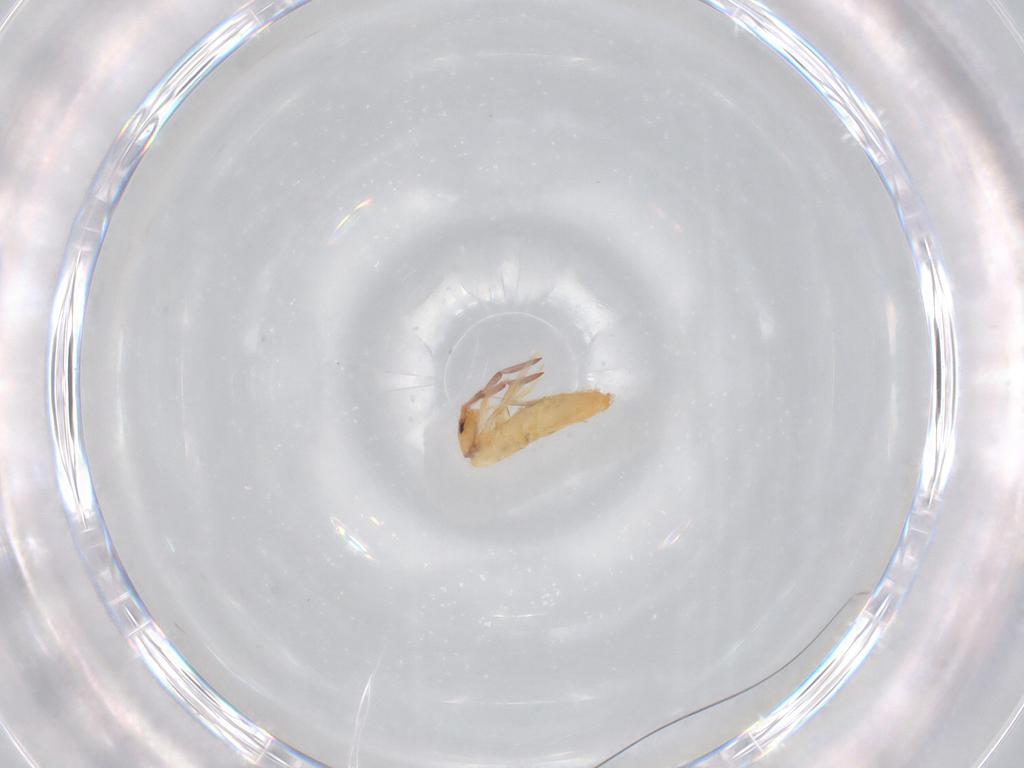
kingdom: Animalia
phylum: Arthropoda
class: Collembola
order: Entomobryomorpha
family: Entomobryidae
